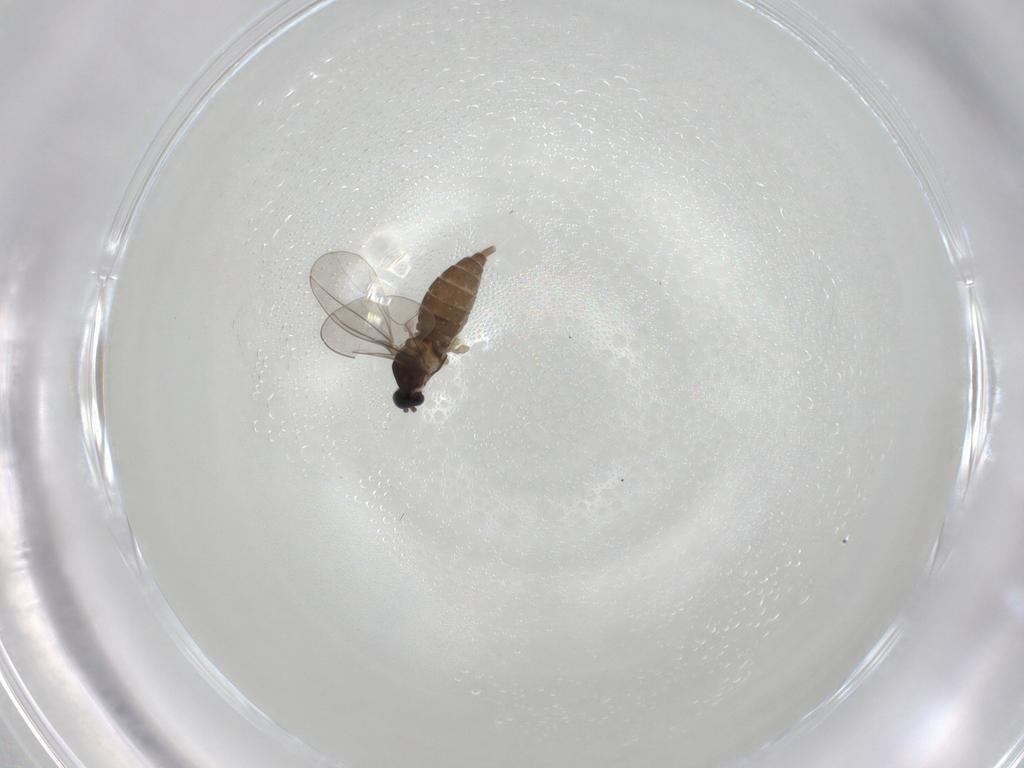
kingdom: Animalia
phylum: Arthropoda
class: Insecta
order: Diptera
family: Cecidomyiidae
